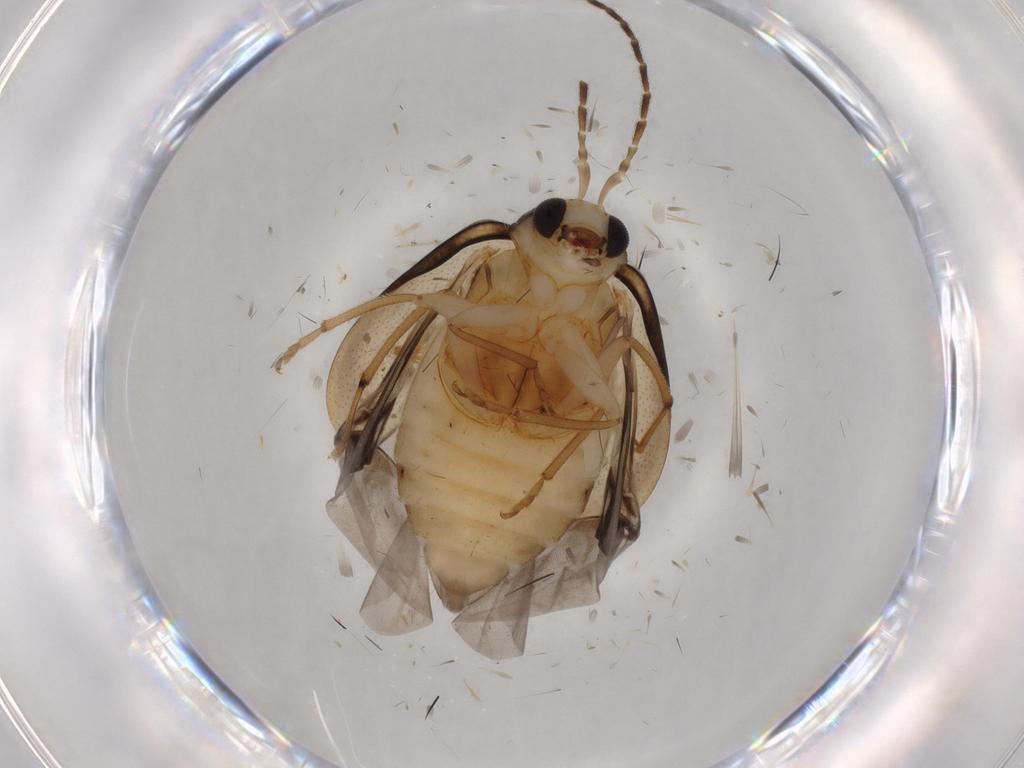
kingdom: Animalia
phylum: Arthropoda
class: Insecta
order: Coleoptera
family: Chrysomelidae
